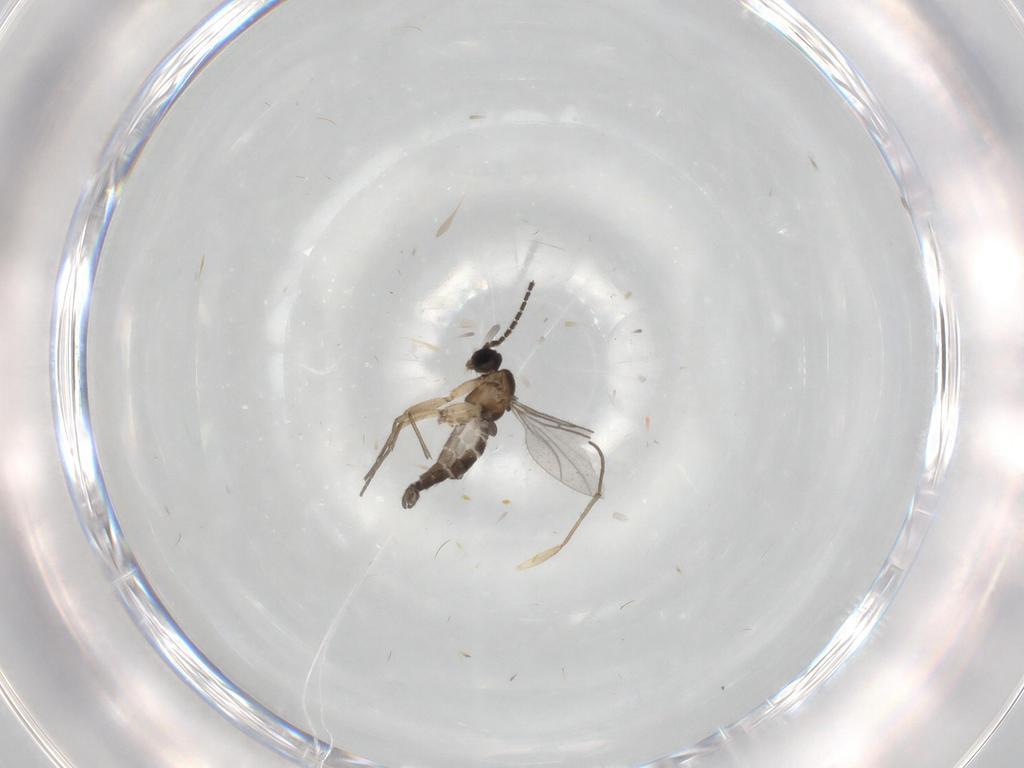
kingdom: Animalia
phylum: Arthropoda
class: Insecta
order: Diptera
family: Sciaridae
